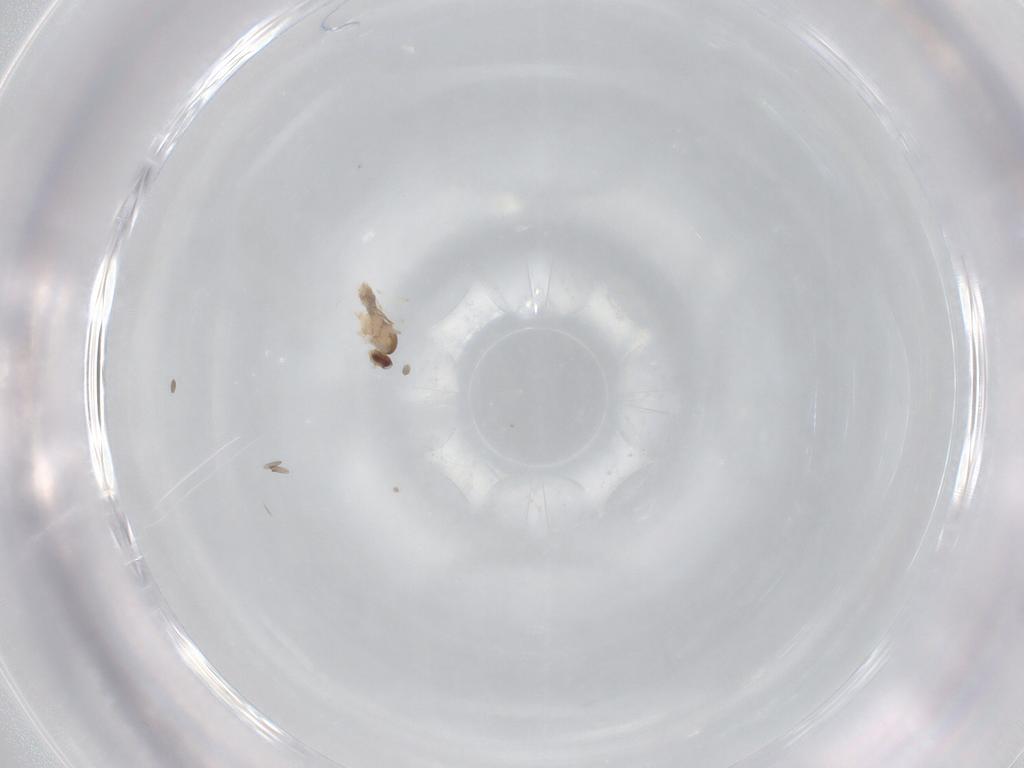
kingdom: Animalia
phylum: Arthropoda
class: Insecta
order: Diptera
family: Cecidomyiidae
